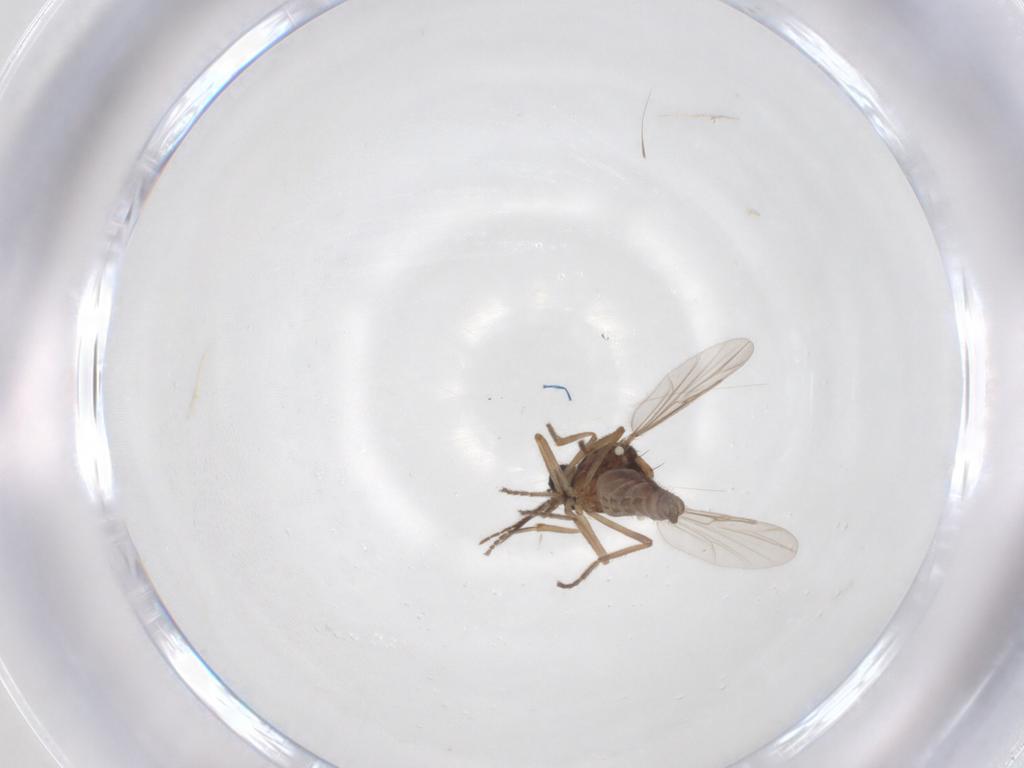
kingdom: Animalia
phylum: Arthropoda
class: Insecta
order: Diptera
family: Ceratopogonidae
